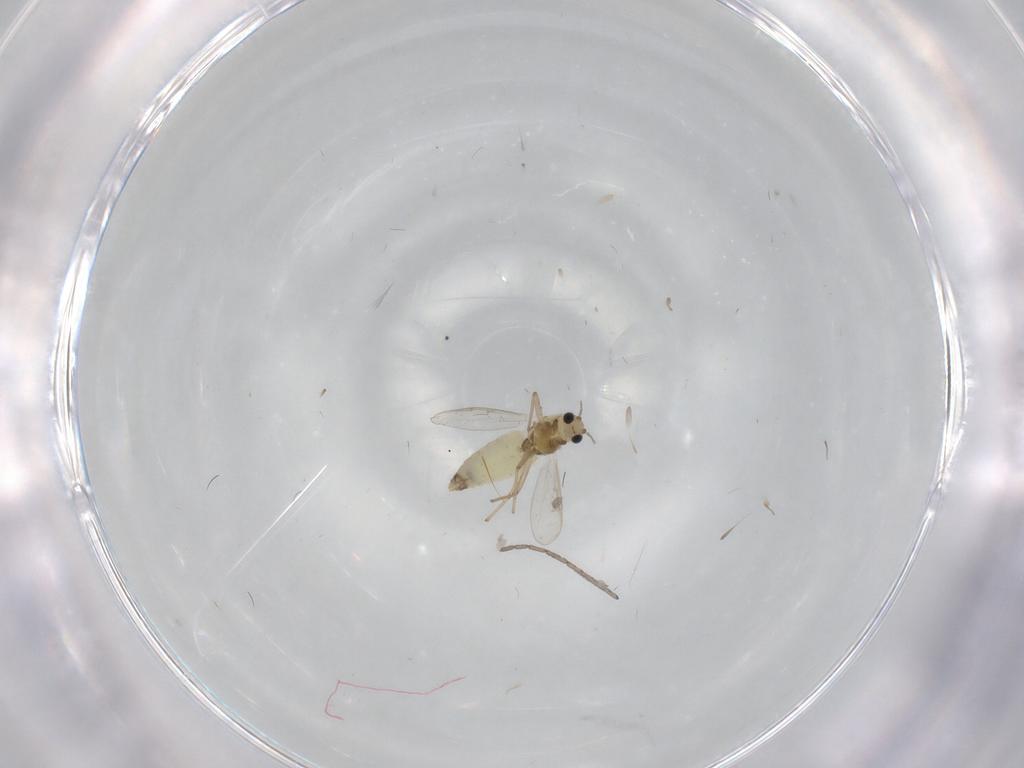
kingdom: Animalia
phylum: Arthropoda
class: Insecta
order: Diptera
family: Chironomidae
